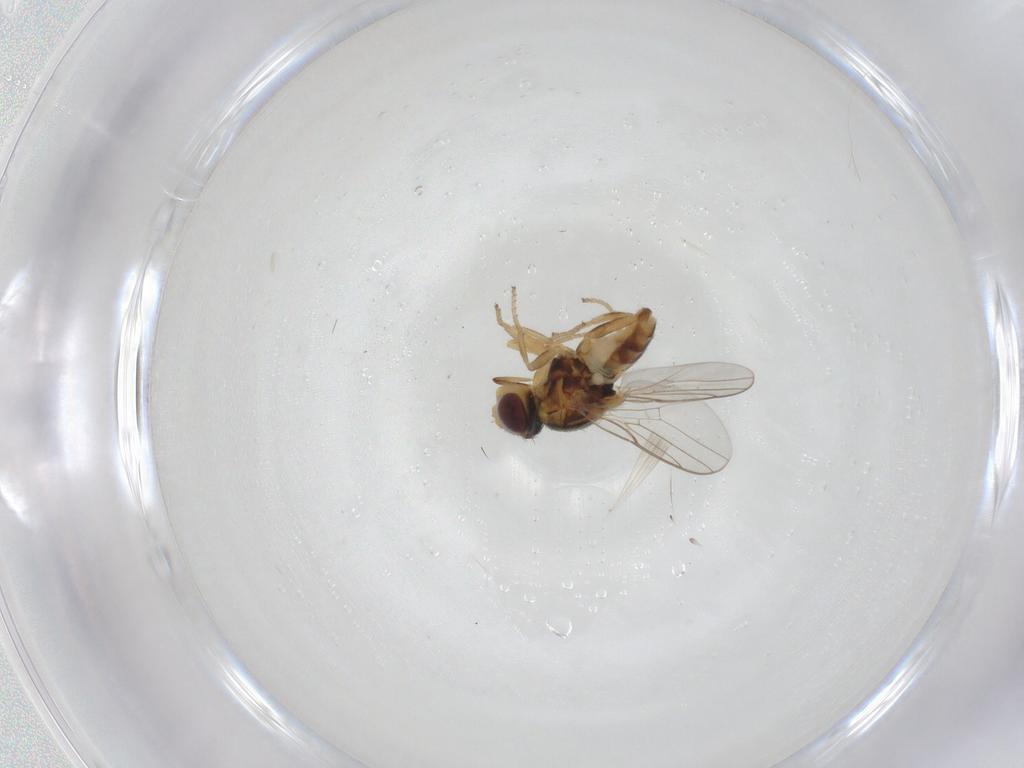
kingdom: Animalia
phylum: Arthropoda
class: Insecta
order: Diptera
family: Chloropidae
